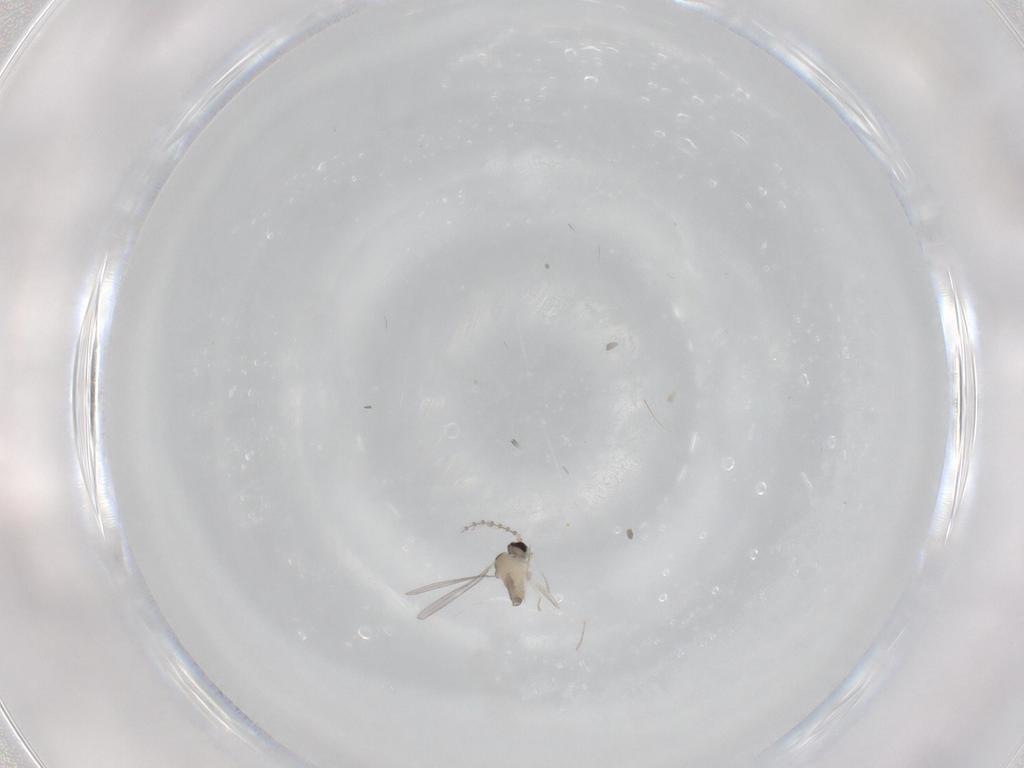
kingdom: Animalia
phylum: Arthropoda
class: Insecta
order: Diptera
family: Cecidomyiidae
